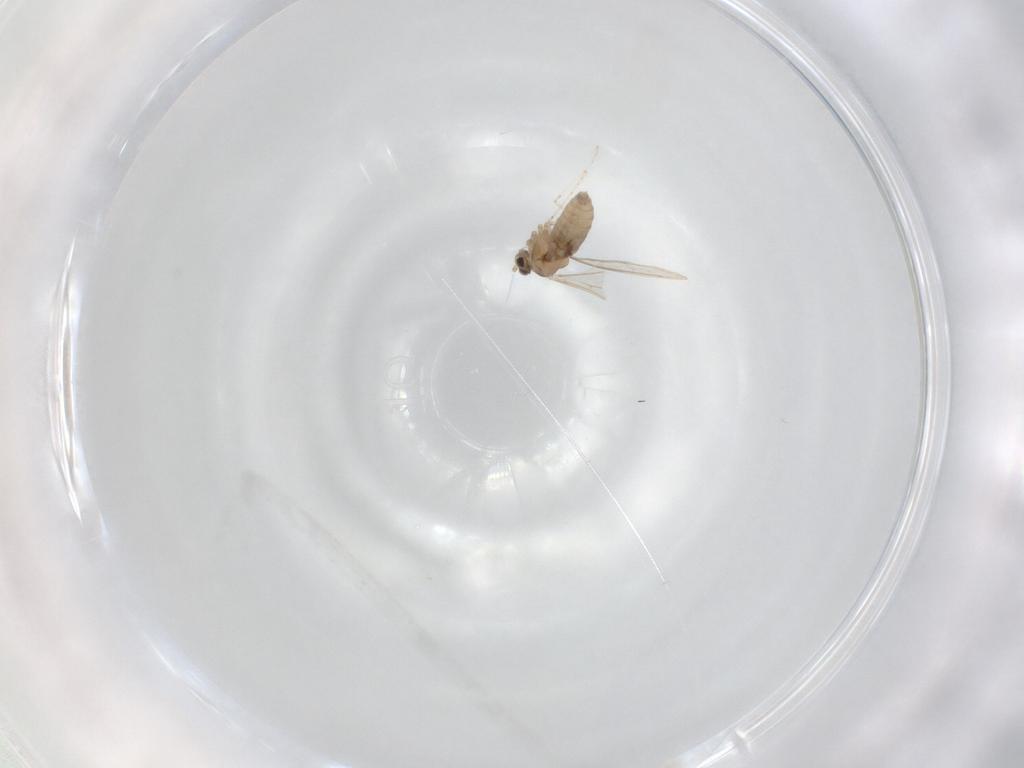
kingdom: Animalia
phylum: Arthropoda
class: Insecta
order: Diptera
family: Cecidomyiidae
